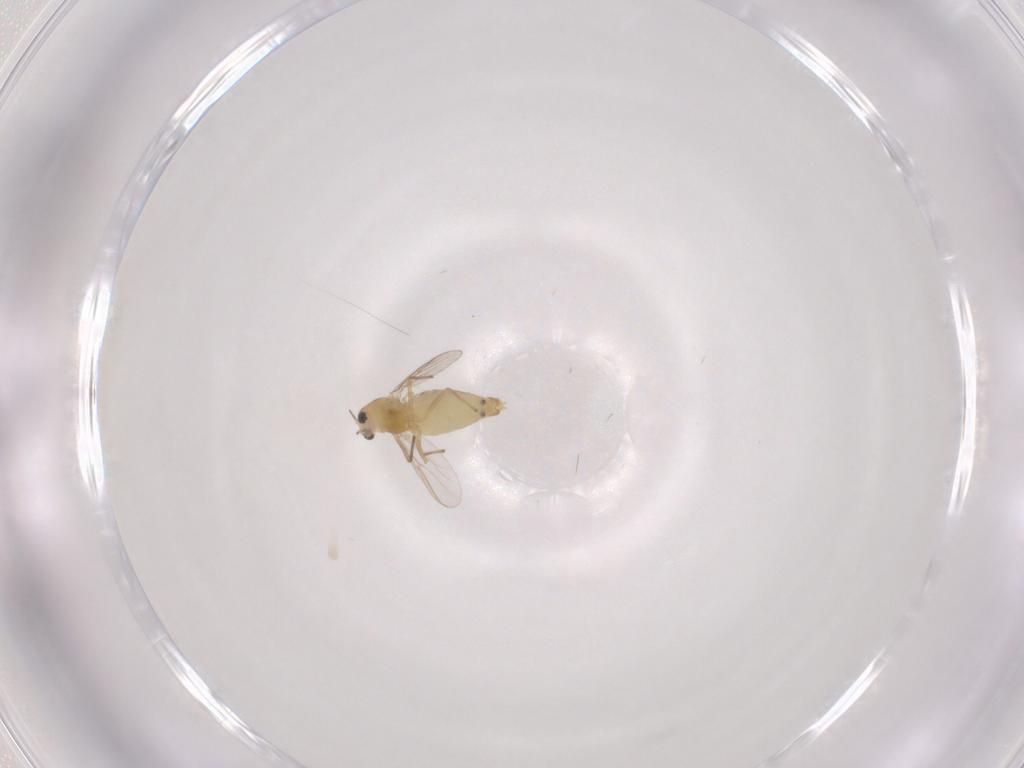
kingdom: Animalia
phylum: Arthropoda
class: Insecta
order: Diptera
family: Chironomidae
